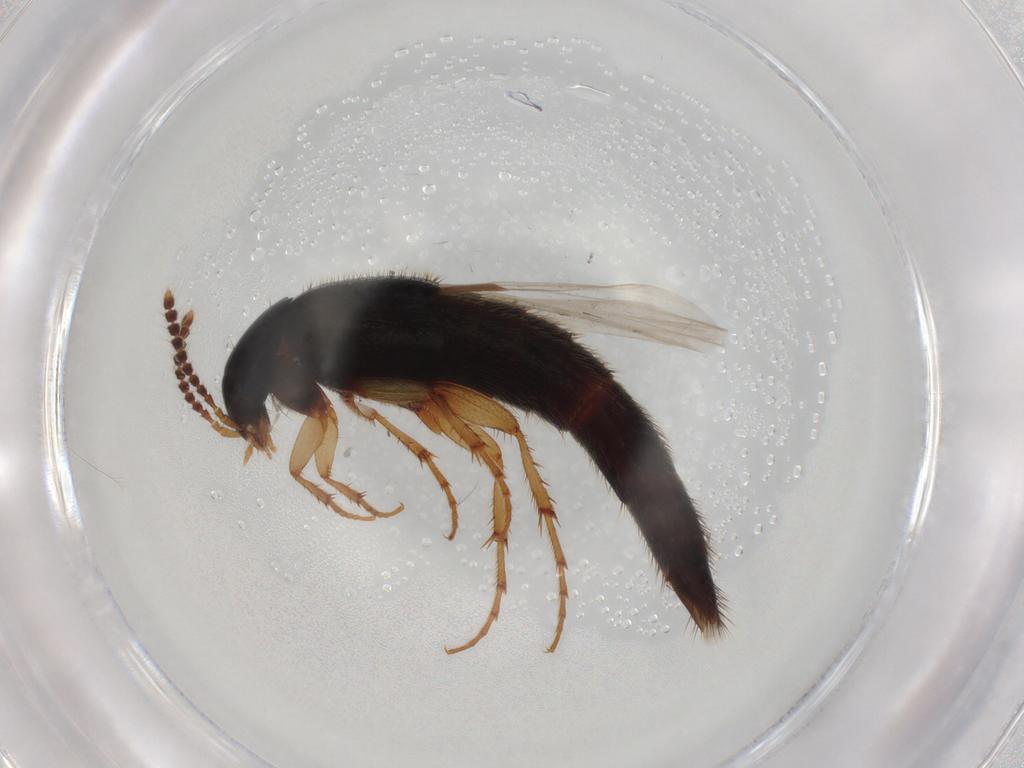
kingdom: Animalia
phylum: Arthropoda
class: Insecta
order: Coleoptera
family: Staphylinidae
